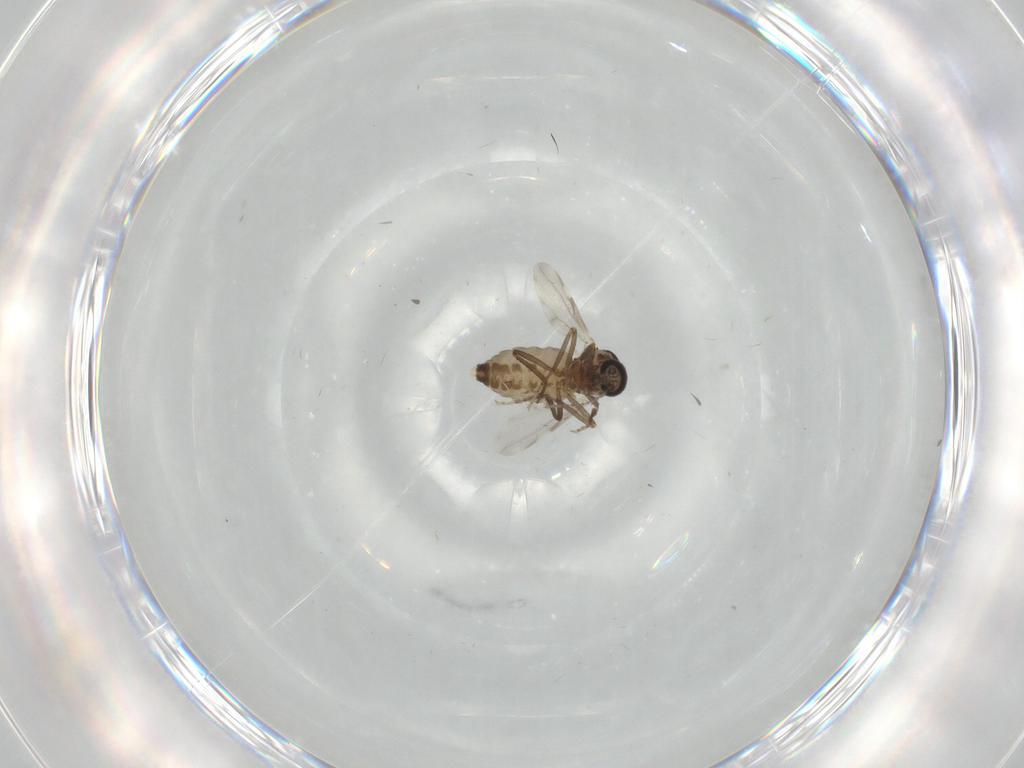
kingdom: Animalia
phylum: Arthropoda
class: Insecta
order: Diptera
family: Ceratopogonidae
